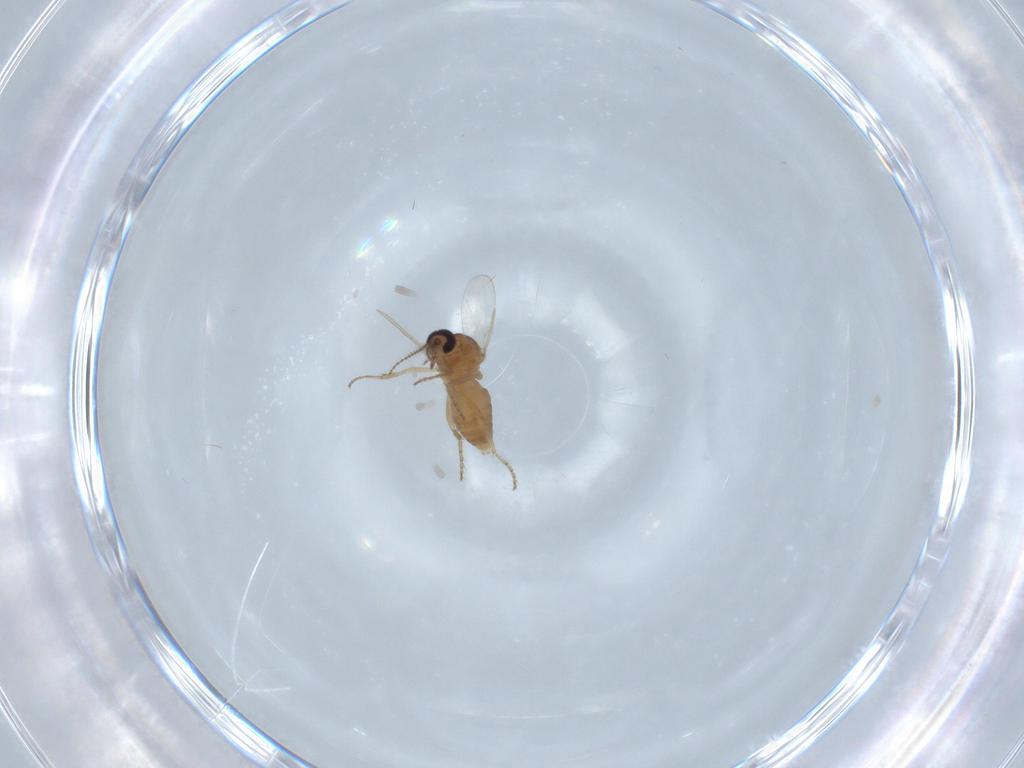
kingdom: Animalia
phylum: Arthropoda
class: Insecta
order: Diptera
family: Ceratopogonidae
